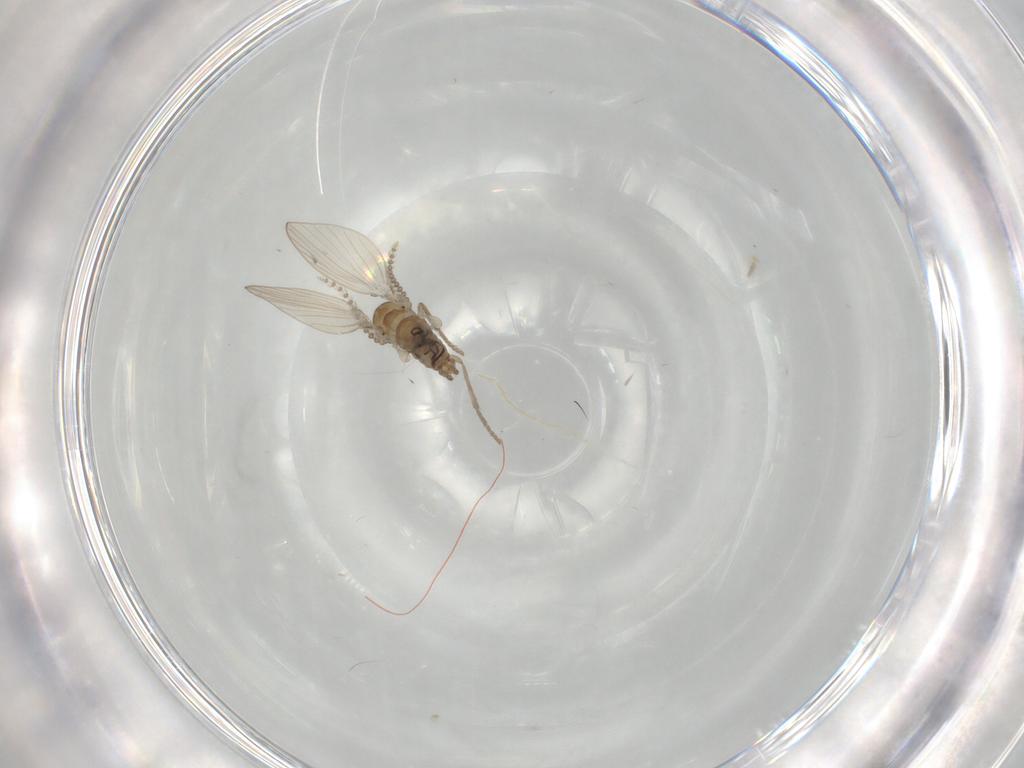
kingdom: Animalia
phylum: Arthropoda
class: Insecta
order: Diptera
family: Psychodidae
